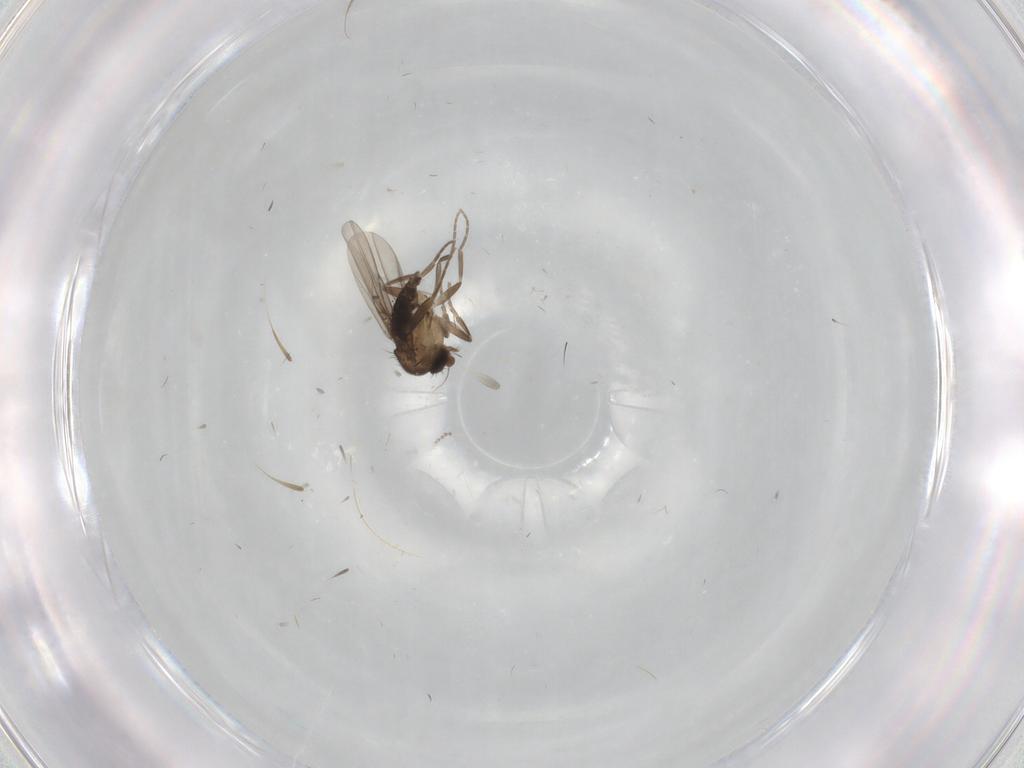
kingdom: Animalia
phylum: Arthropoda
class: Insecta
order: Diptera
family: Phoridae
